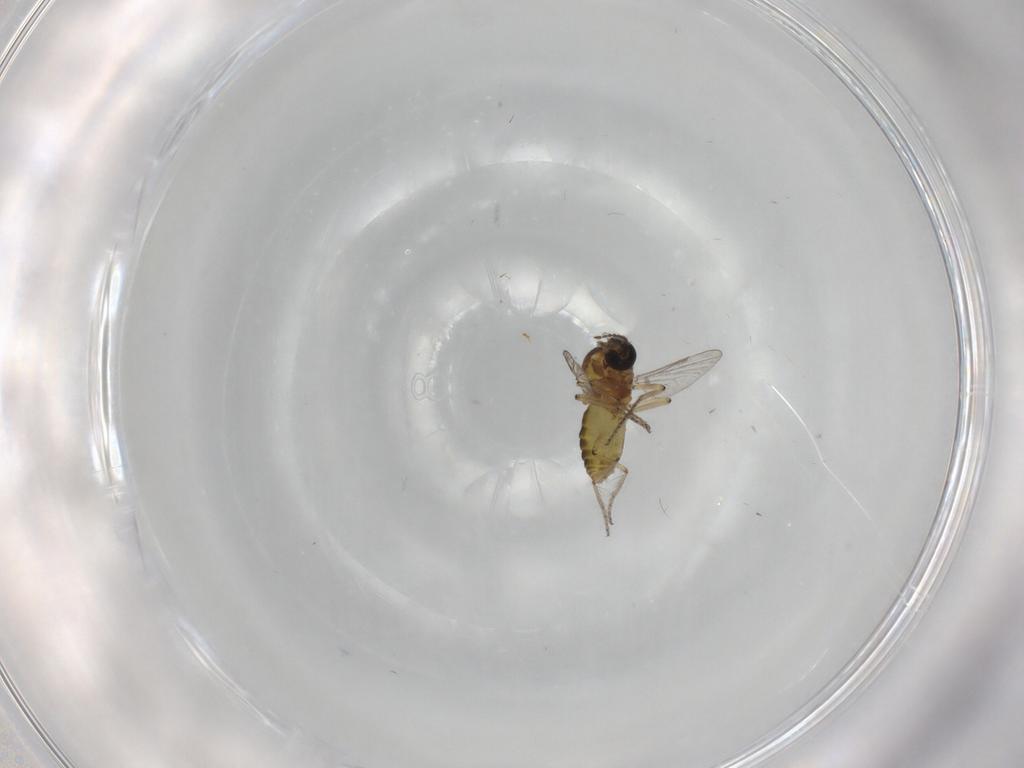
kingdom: Animalia
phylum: Arthropoda
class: Insecta
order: Diptera
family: Ceratopogonidae
